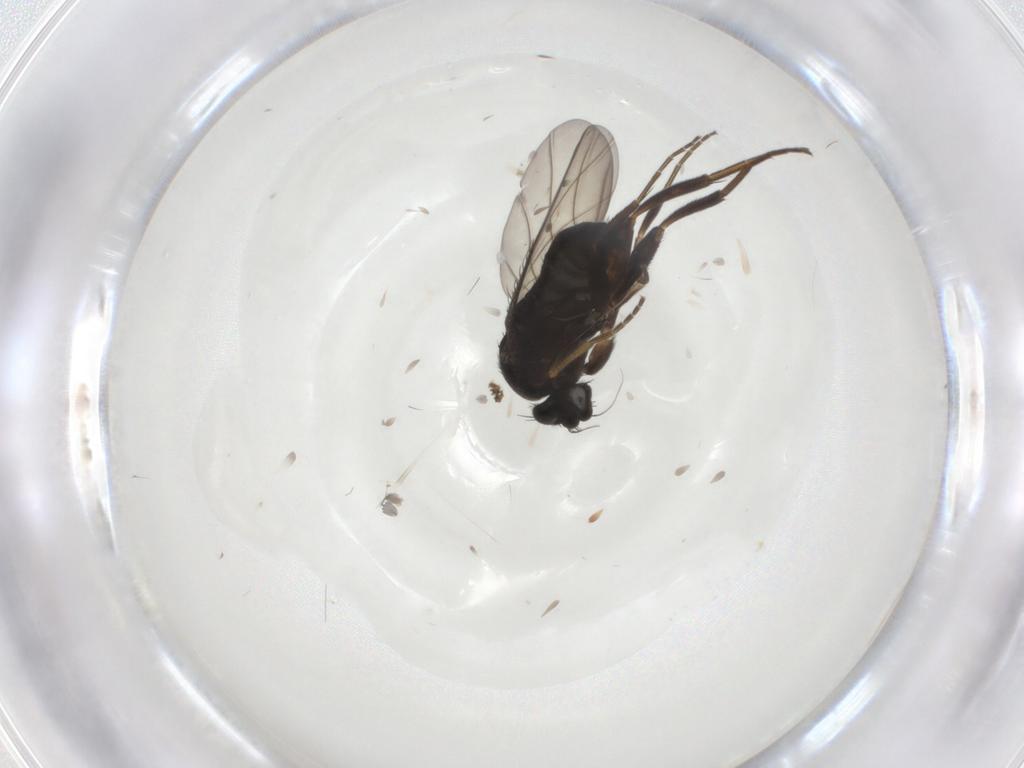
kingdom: Animalia
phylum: Arthropoda
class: Insecta
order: Diptera
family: Phoridae
